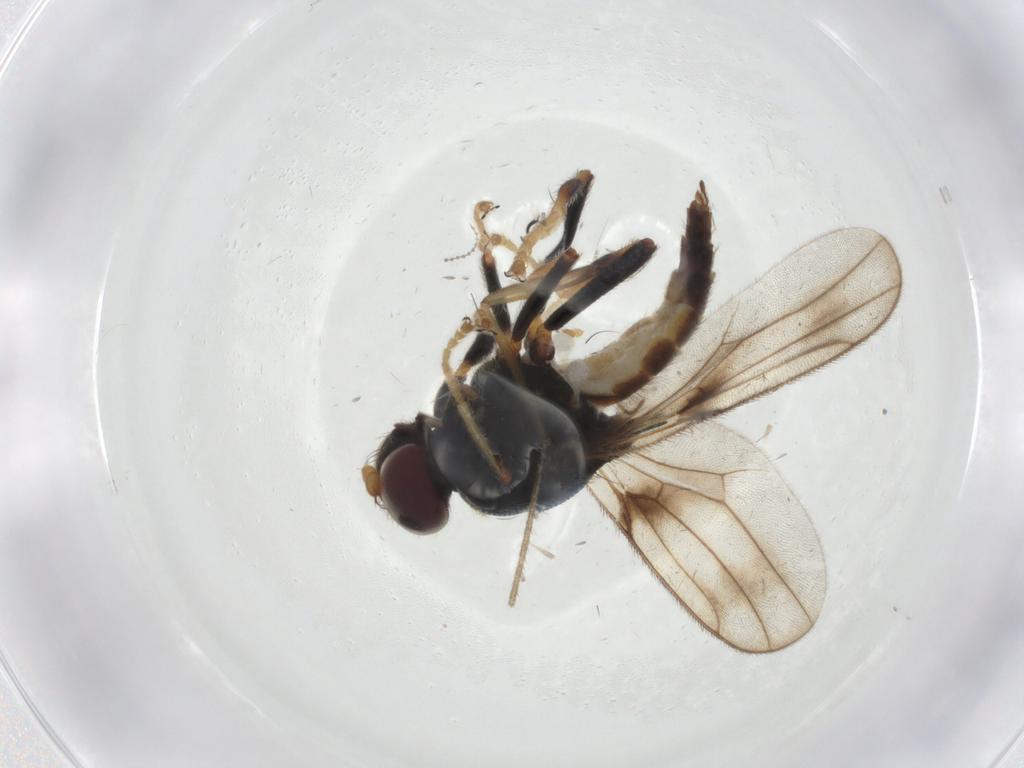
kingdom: Animalia
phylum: Arthropoda
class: Insecta
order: Diptera
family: Chloropidae
